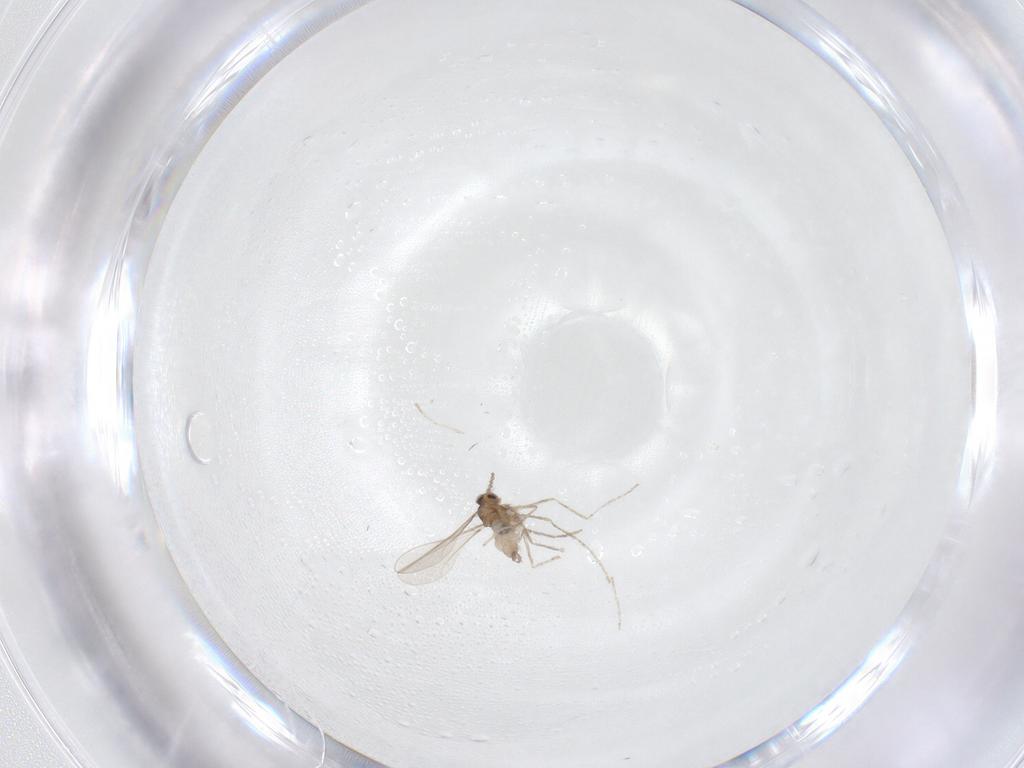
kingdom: Animalia
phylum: Arthropoda
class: Insecta
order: Diptera
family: Cecidomyiidae
